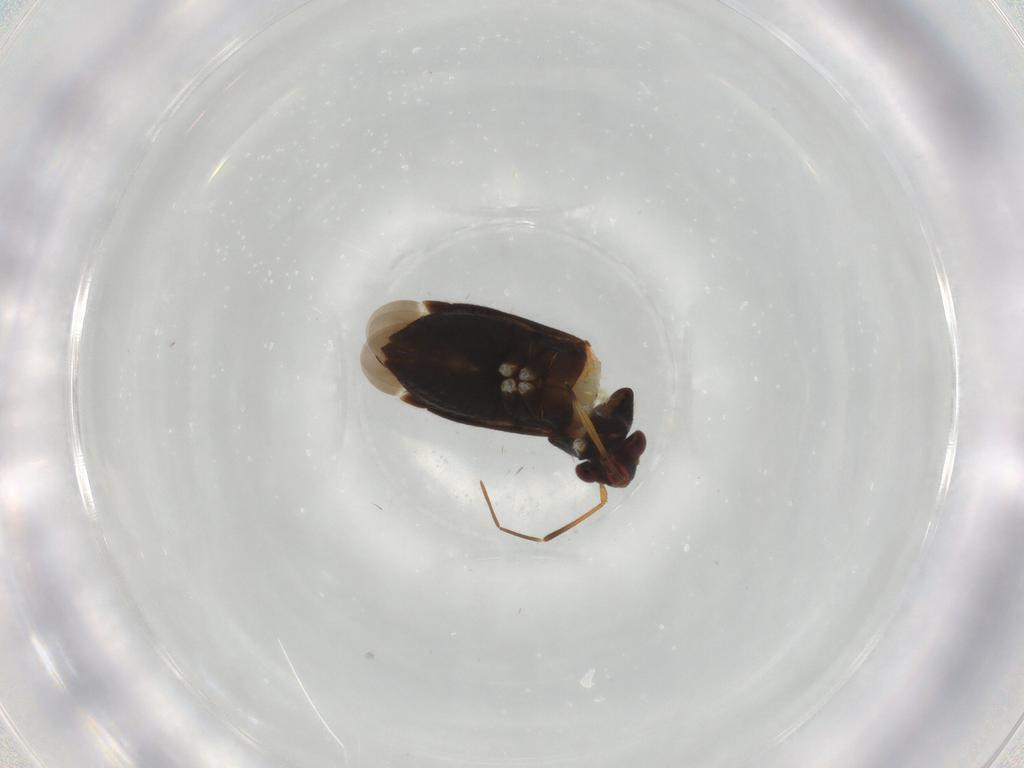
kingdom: Animalia
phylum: Arthropoda
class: Insecta
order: Hemiptera
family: Miridae
